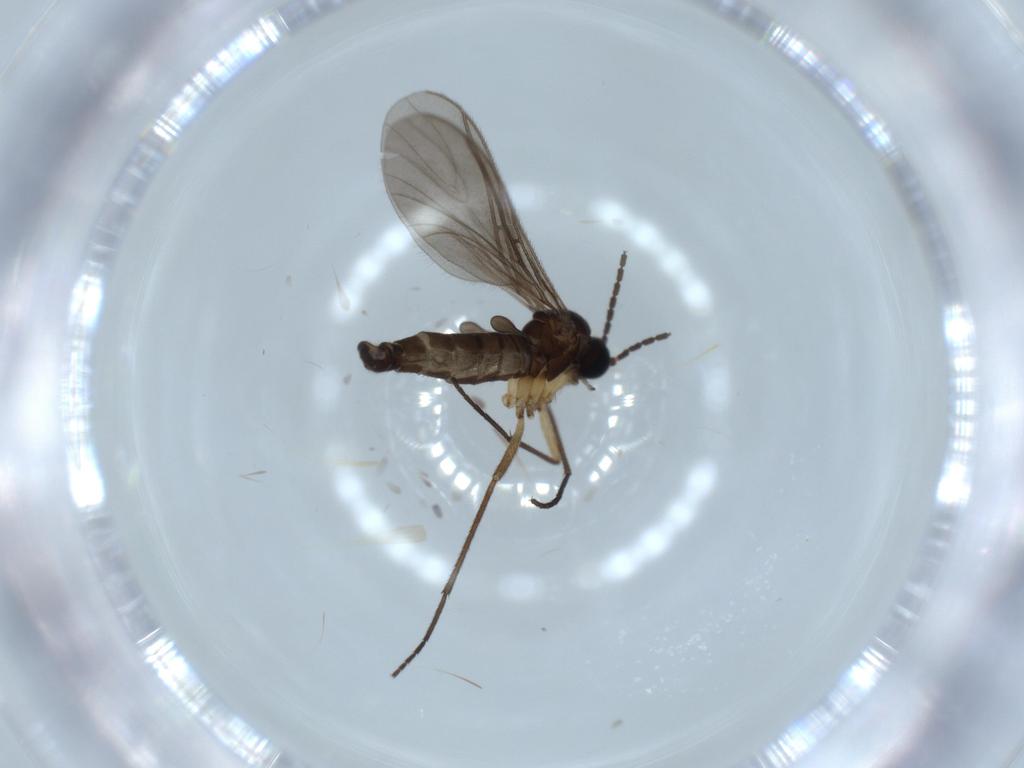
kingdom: Animalia
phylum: Arthropoda
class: Insecta
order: Diptera
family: Sciaridae
